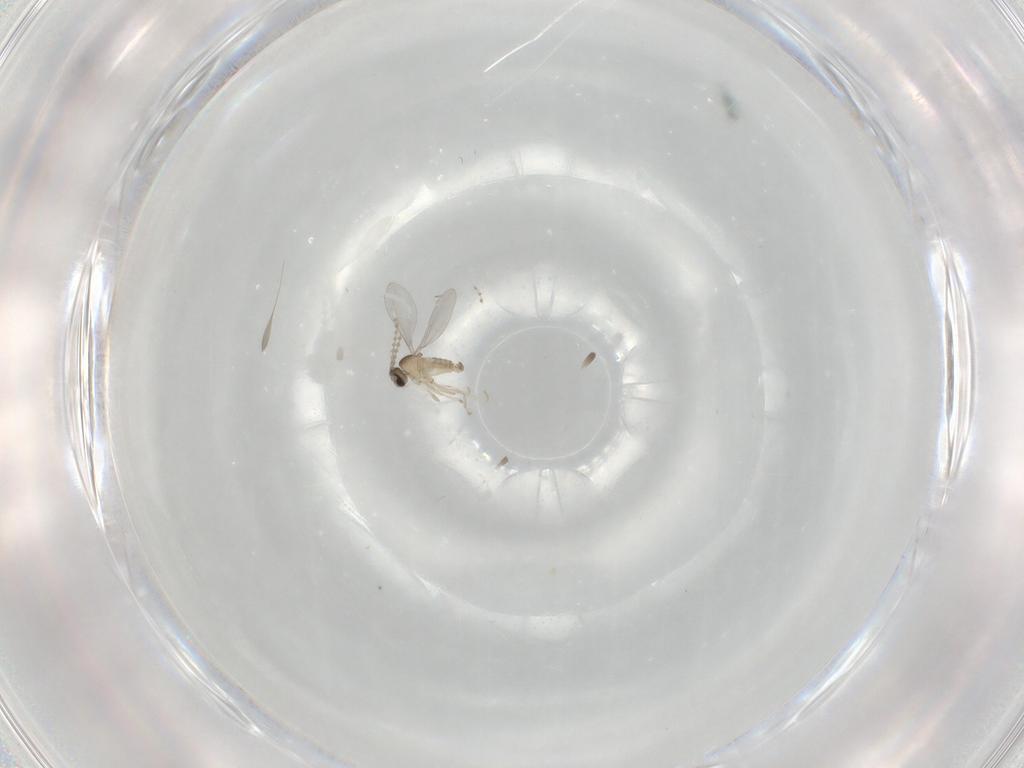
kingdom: Animalia
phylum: Arthropoda
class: Insecta
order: Diptera
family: Cecidomyiidae
